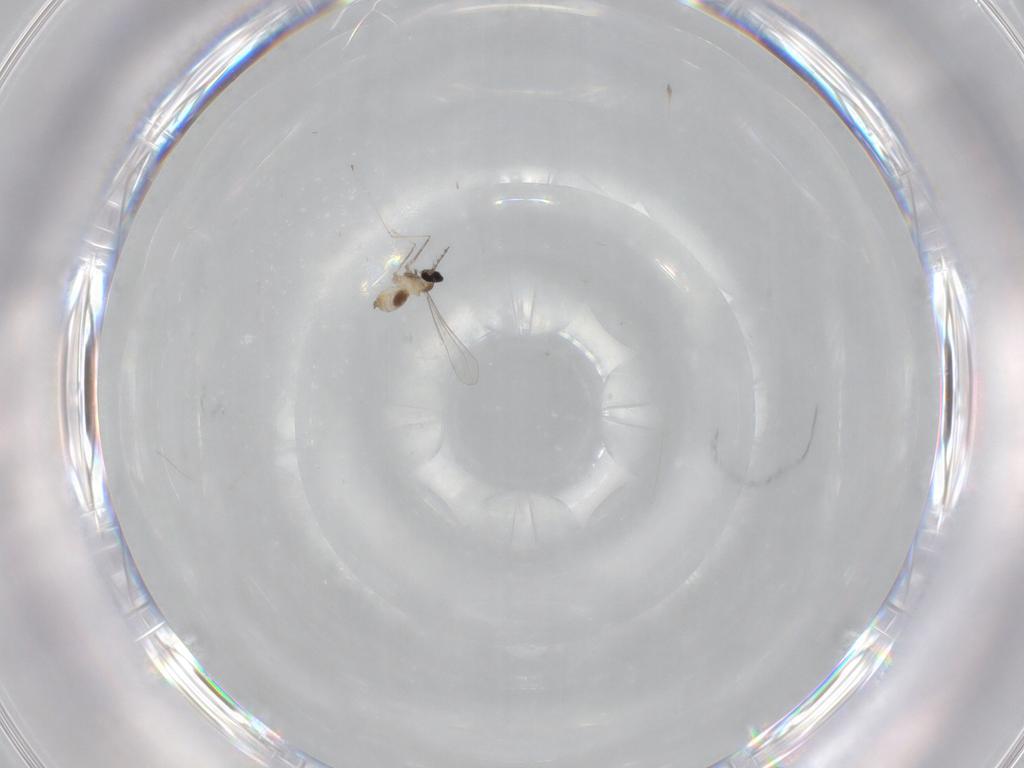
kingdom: Animalia
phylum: Arthropoda
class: Insecta
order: Diptera
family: Cecidomyiidae
